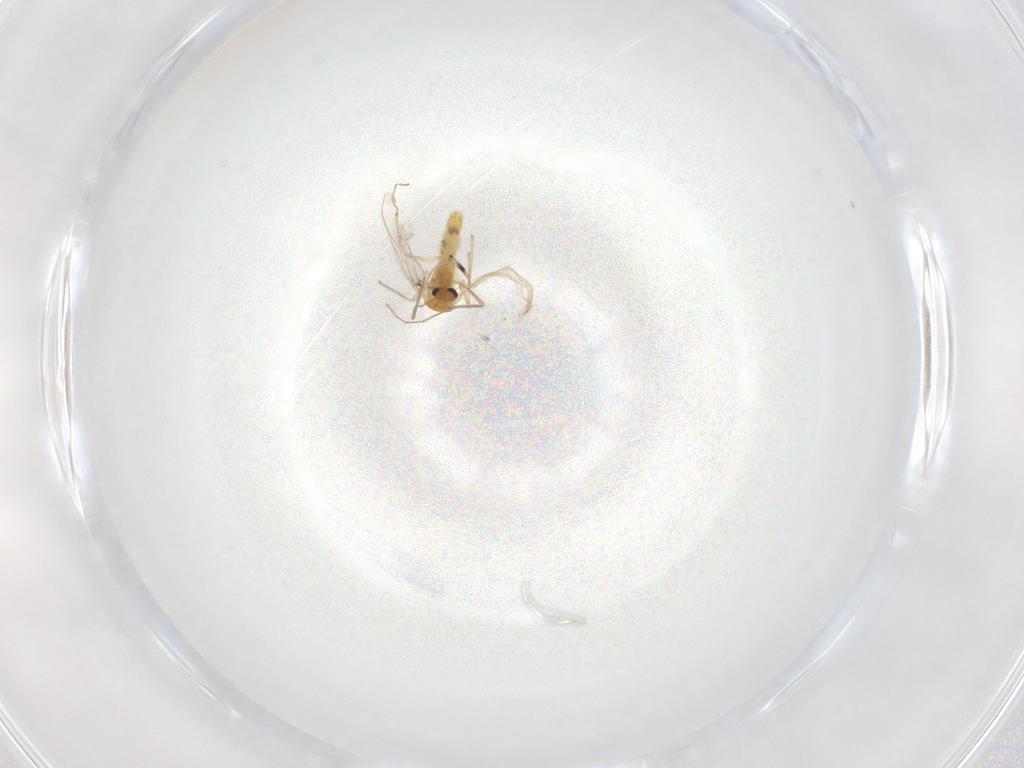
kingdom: Animalia
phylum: Arthropoda
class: Insecta
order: Diptera
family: Chironomidae
